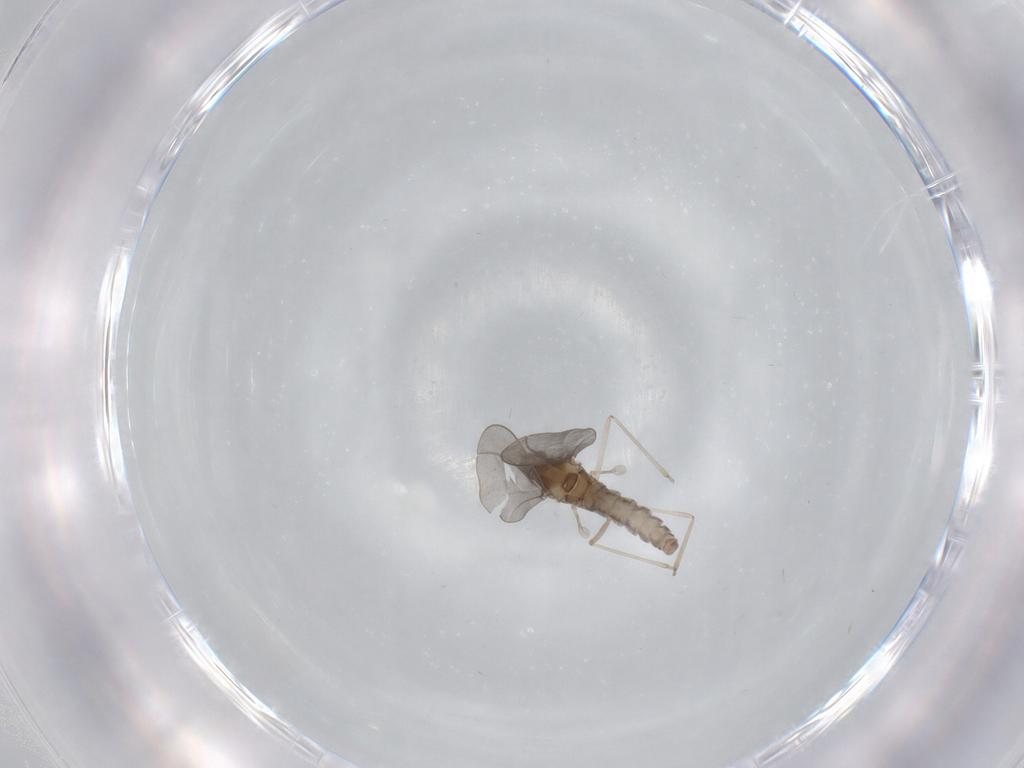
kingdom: Animalia
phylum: Arthropoda
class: Insecta
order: Diptera
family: Cecidomyiidae
